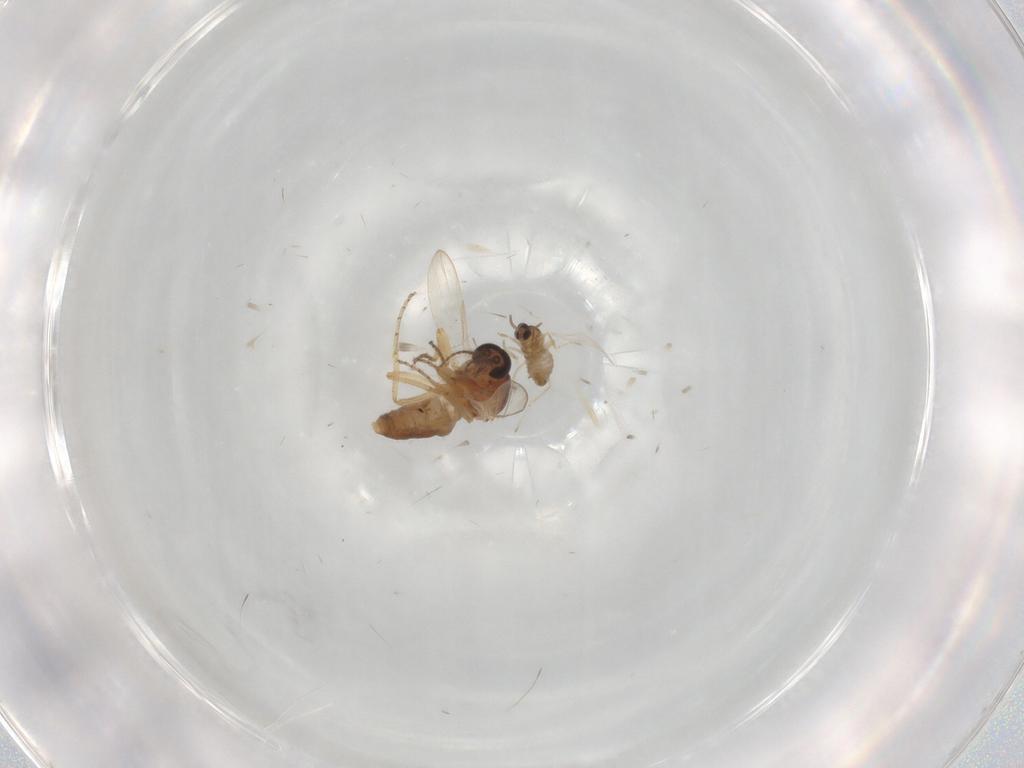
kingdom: Animalia
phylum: Arthropoda
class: Insecta
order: Diptera
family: Cecidomyiidae
